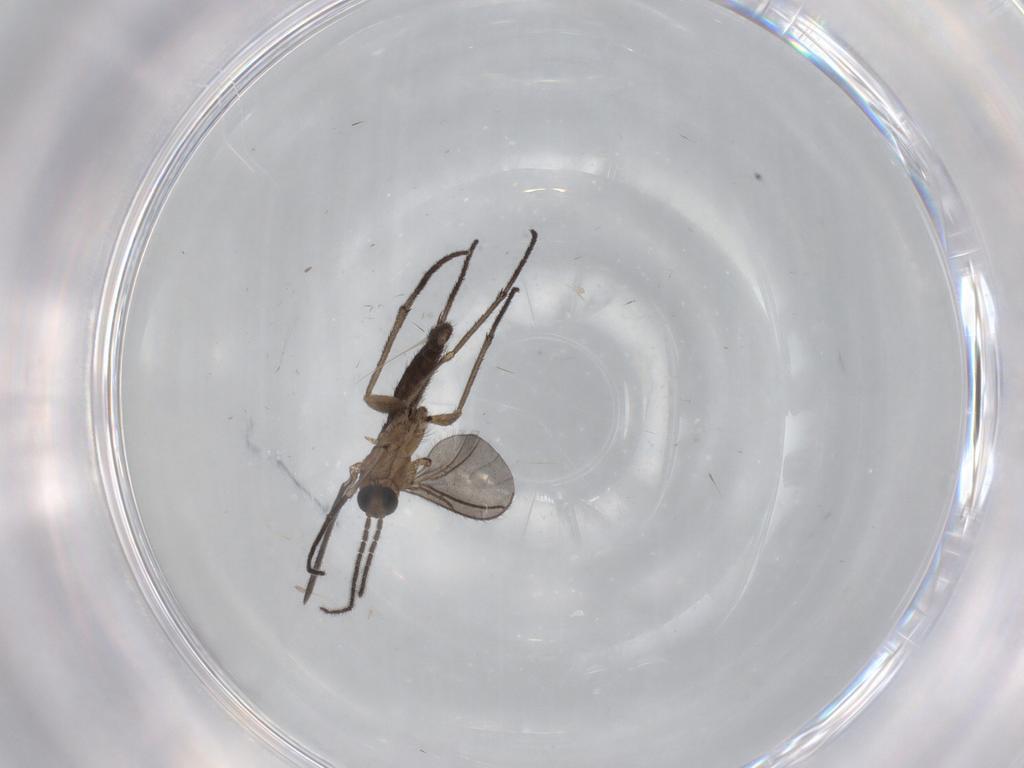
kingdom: Animalia
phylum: Arthropoda
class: Insecta
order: Diptera
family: Sciaridae
